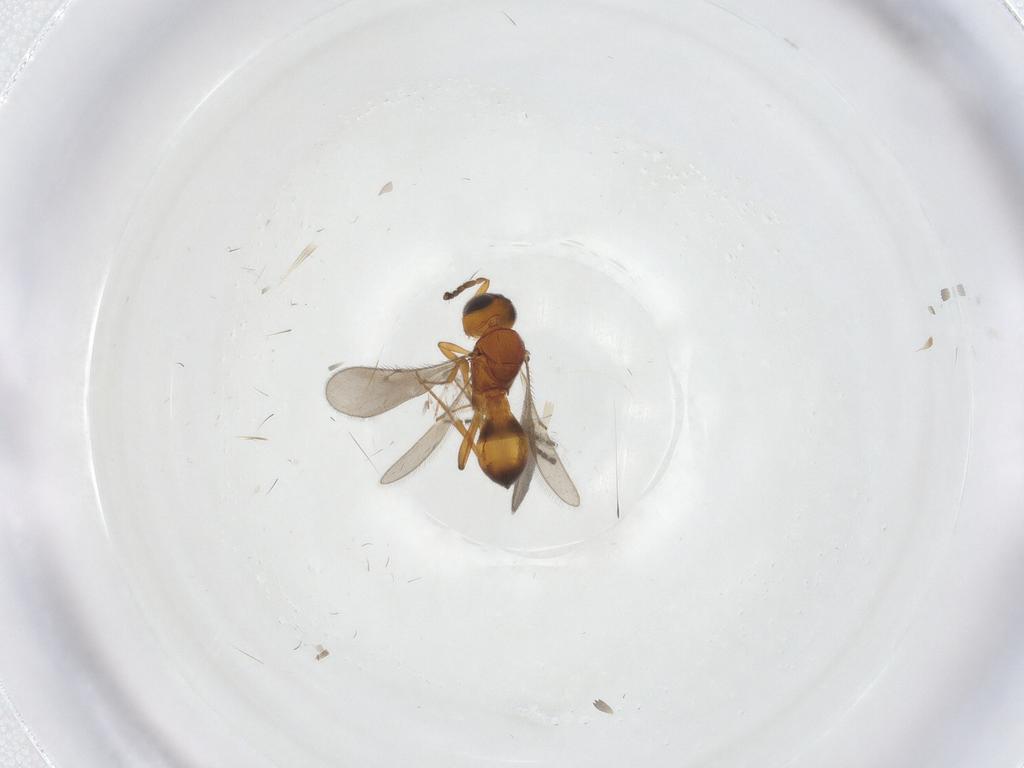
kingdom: Animalia
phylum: Arthropoda
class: Insecta
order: Hymenoptera
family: Scelionidae
